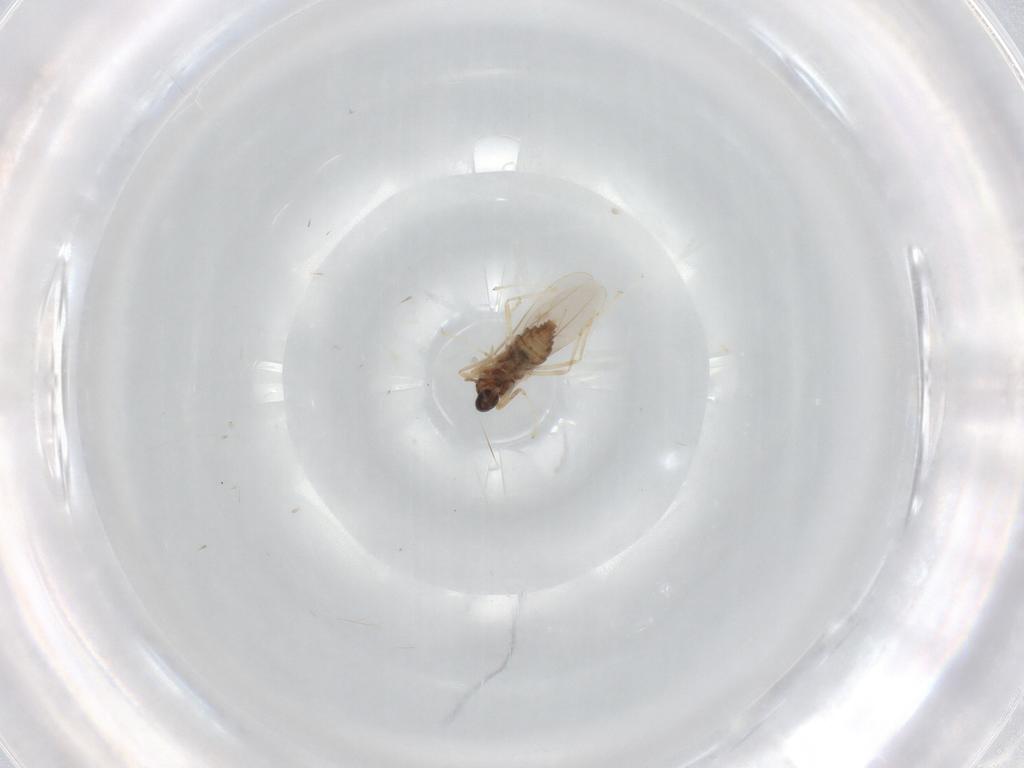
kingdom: Animalia
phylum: Arthropoda
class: Insecta
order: Diptera
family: Cecidomyiidae
